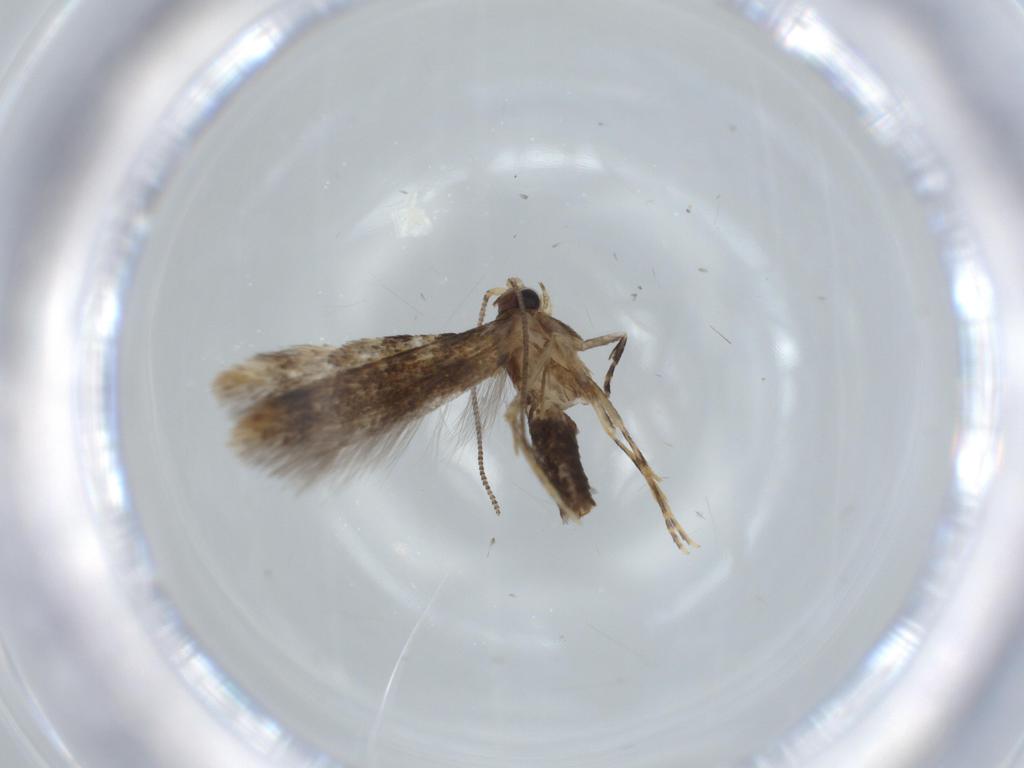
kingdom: Animalia
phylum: Arthropoda
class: Insecta
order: Lepidoptera
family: Tineidae
